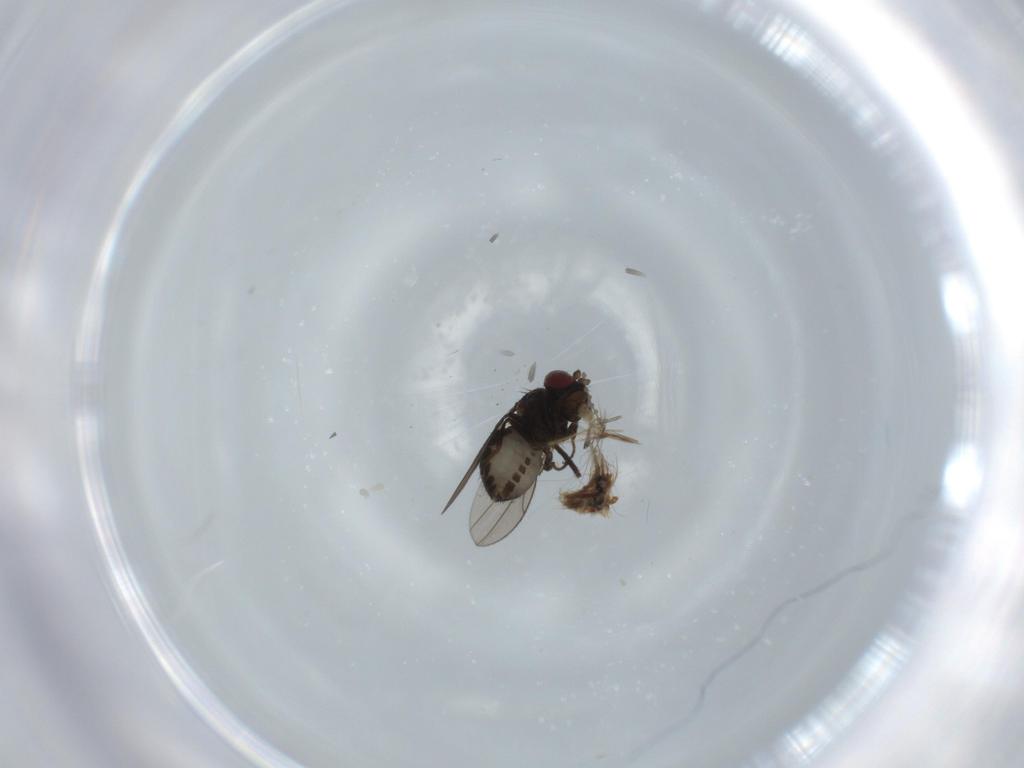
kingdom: Animalia
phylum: Arthropoda
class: Insecta
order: Diptera
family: Ephydridae
